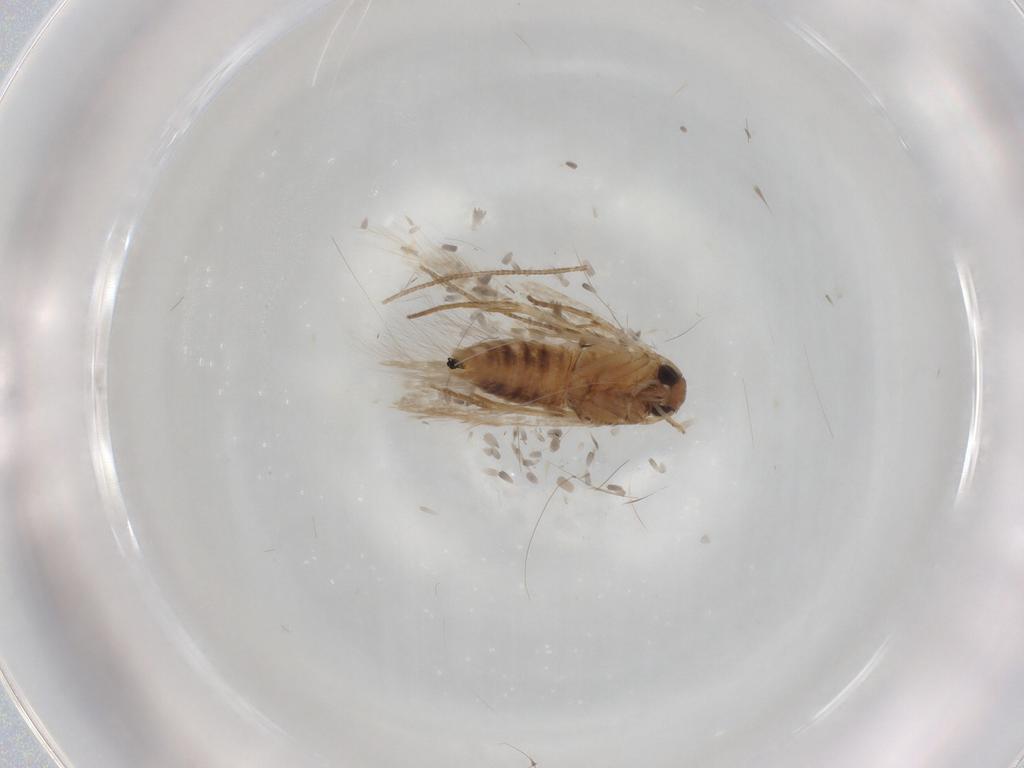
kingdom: Animalia
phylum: Arthropoda
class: Insecta
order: Lepidoptera
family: Cosmopterigidae
